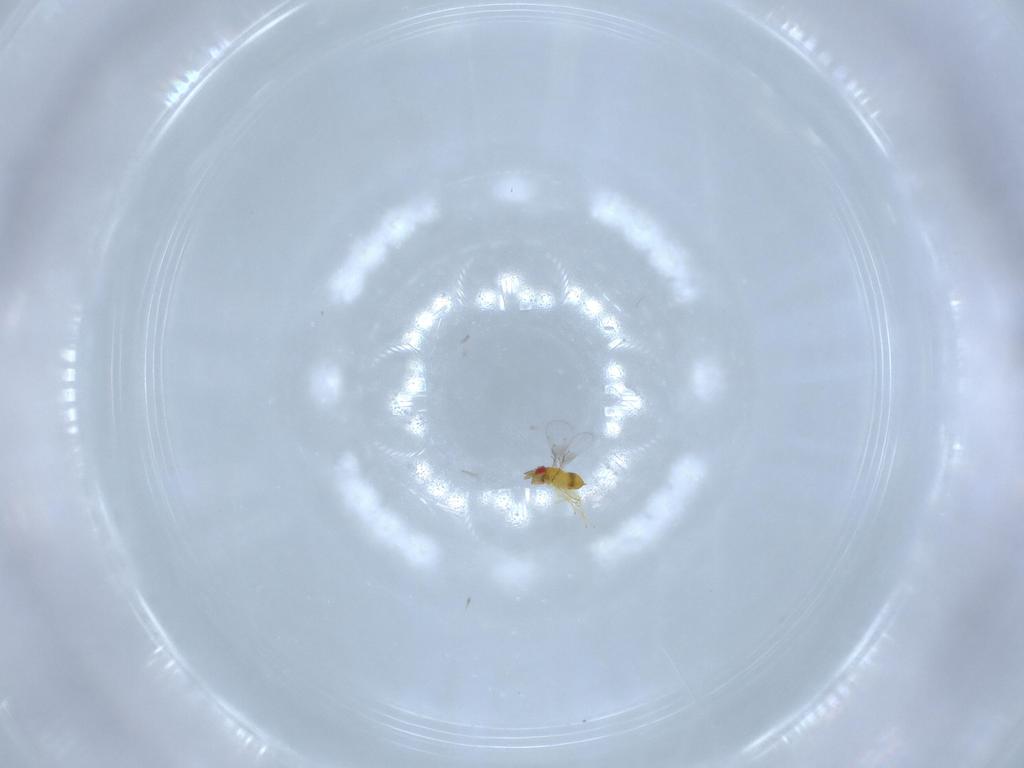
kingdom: Animalia
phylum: Arthropoda
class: Insecta
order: Hymenoptera
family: Trichogrammatidae
